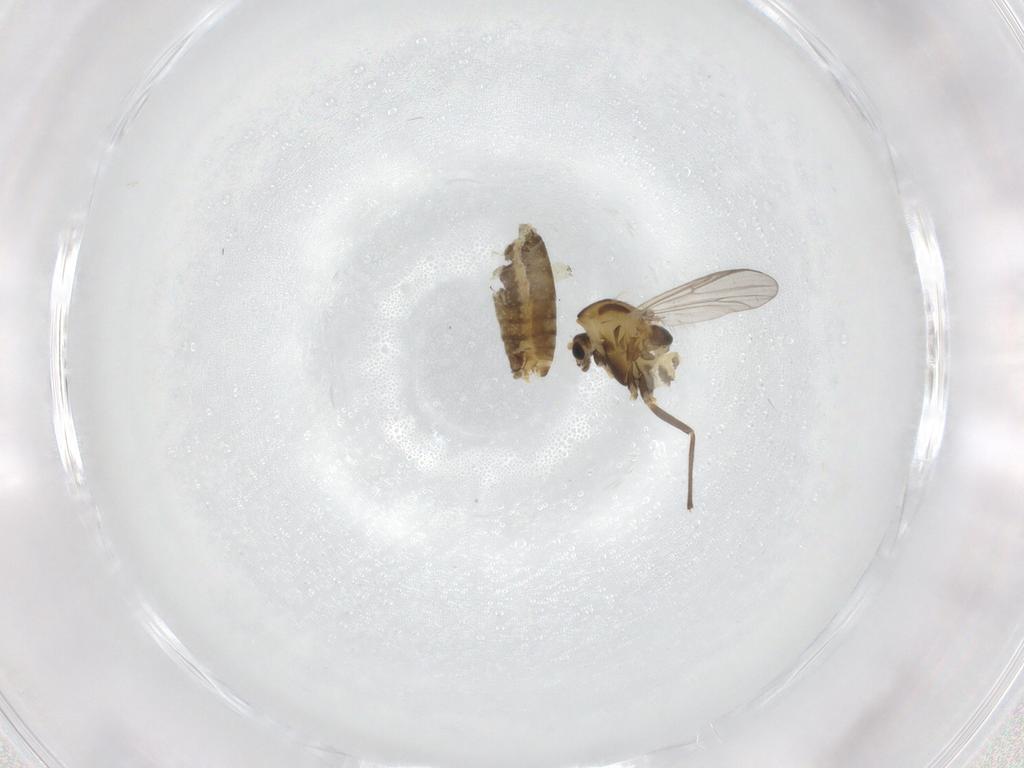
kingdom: Animalia
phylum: Arthropoda
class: Insecta
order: Diptera
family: Chironomidae
